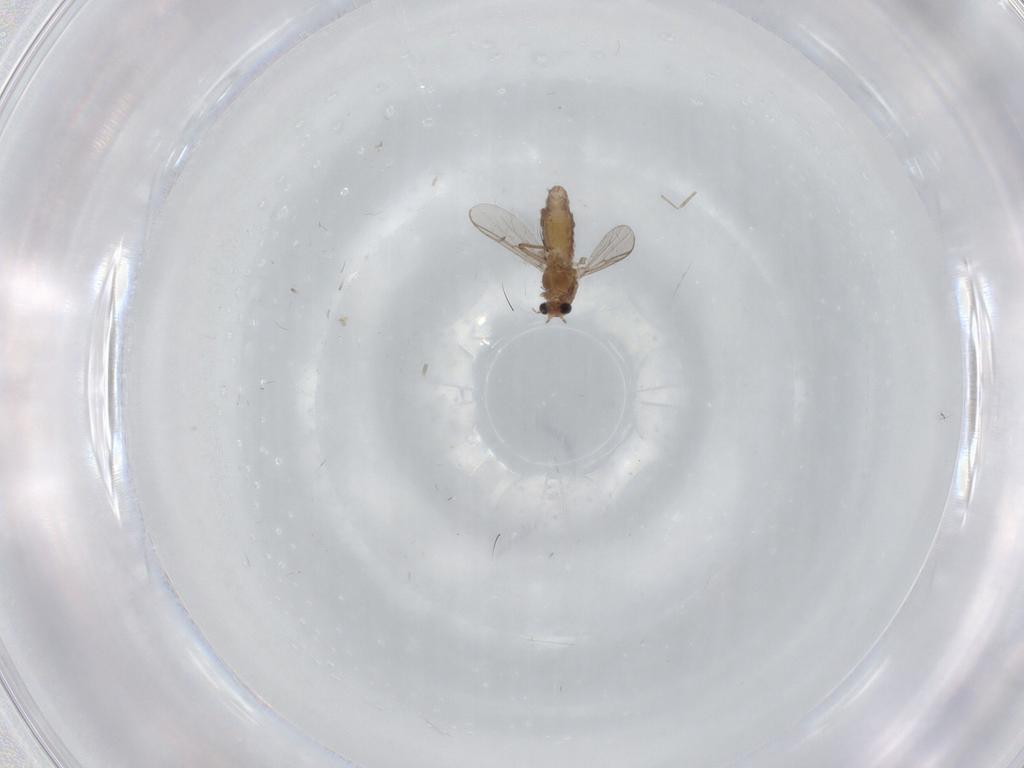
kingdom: Animalia
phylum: Arthropoda
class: Insecta
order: Diptera
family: Chironomidae
